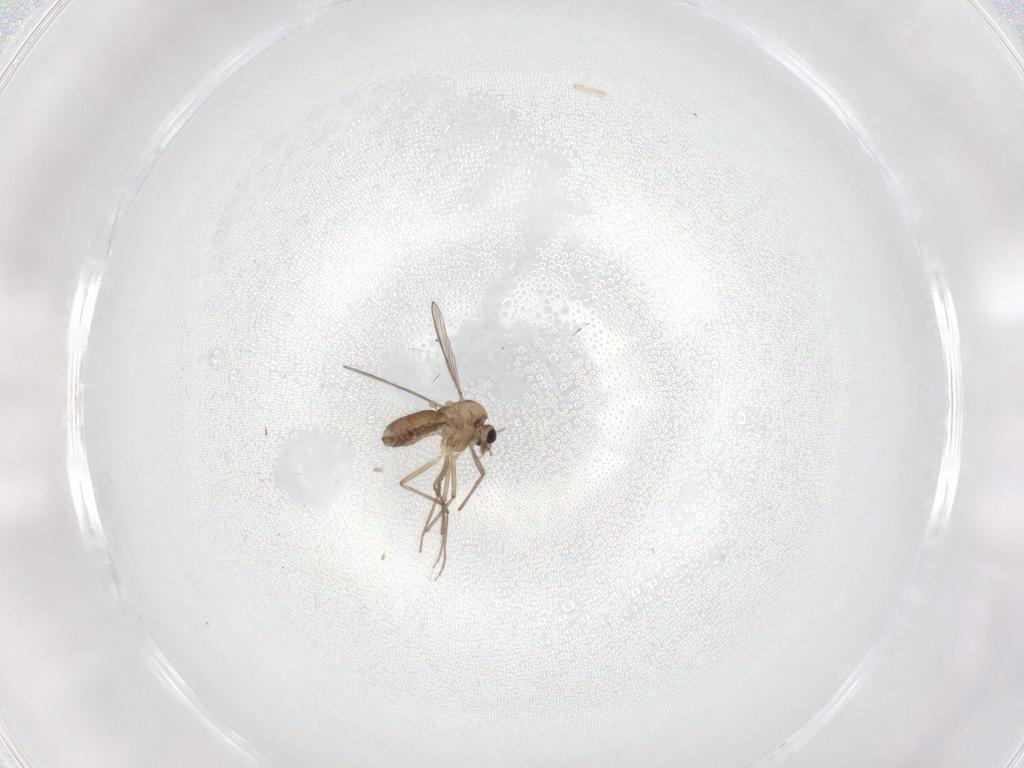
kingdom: Animalia
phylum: Arthropoda
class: Insecta
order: Diptera
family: Chironomidae
